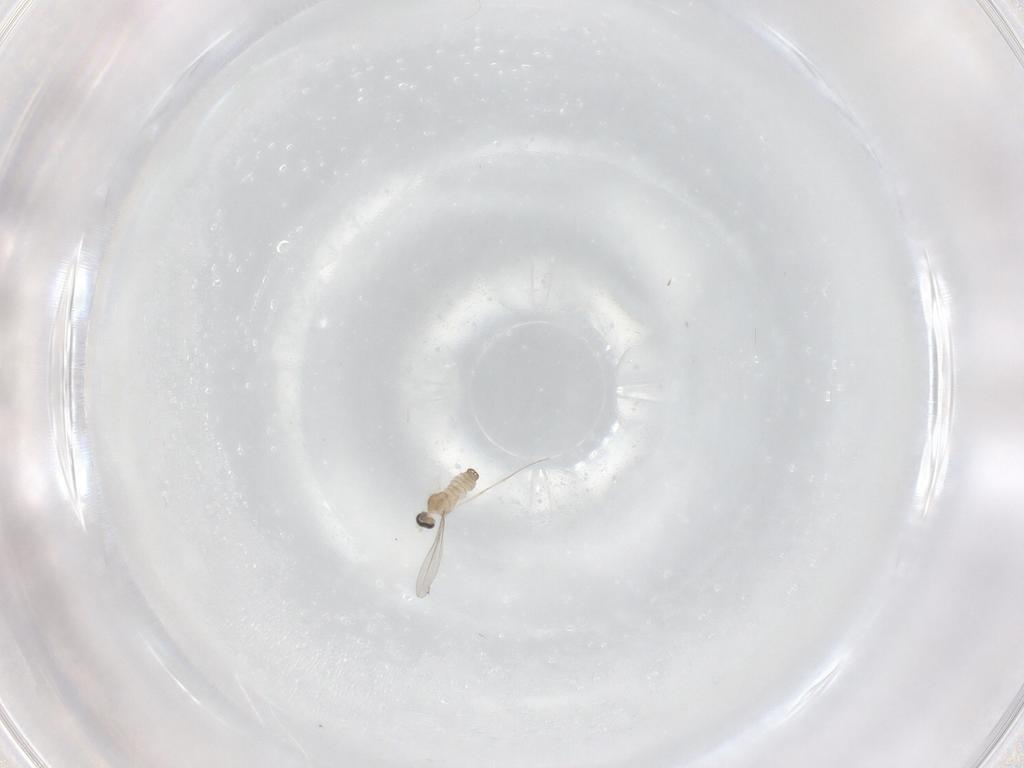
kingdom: Animalia
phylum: Arthropoda
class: Insecta
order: Diptera
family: Cecidomyiidae
